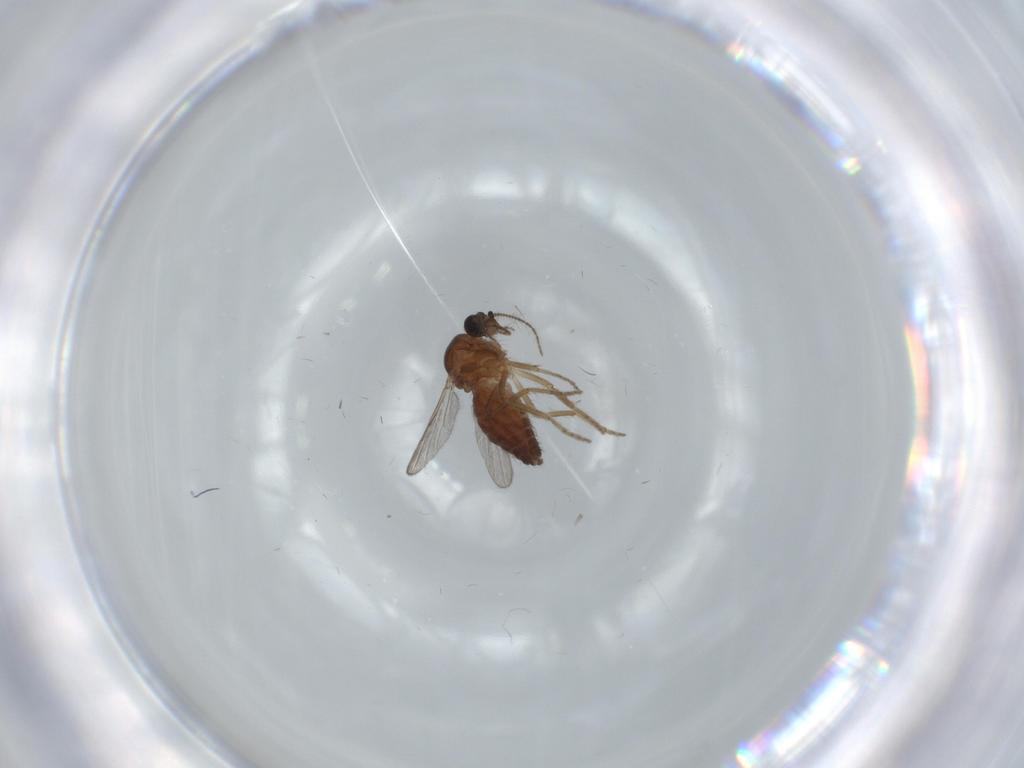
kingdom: Animalia
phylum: Arthropoda
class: Insecta
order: Diptera
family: Ceratopogonidae
